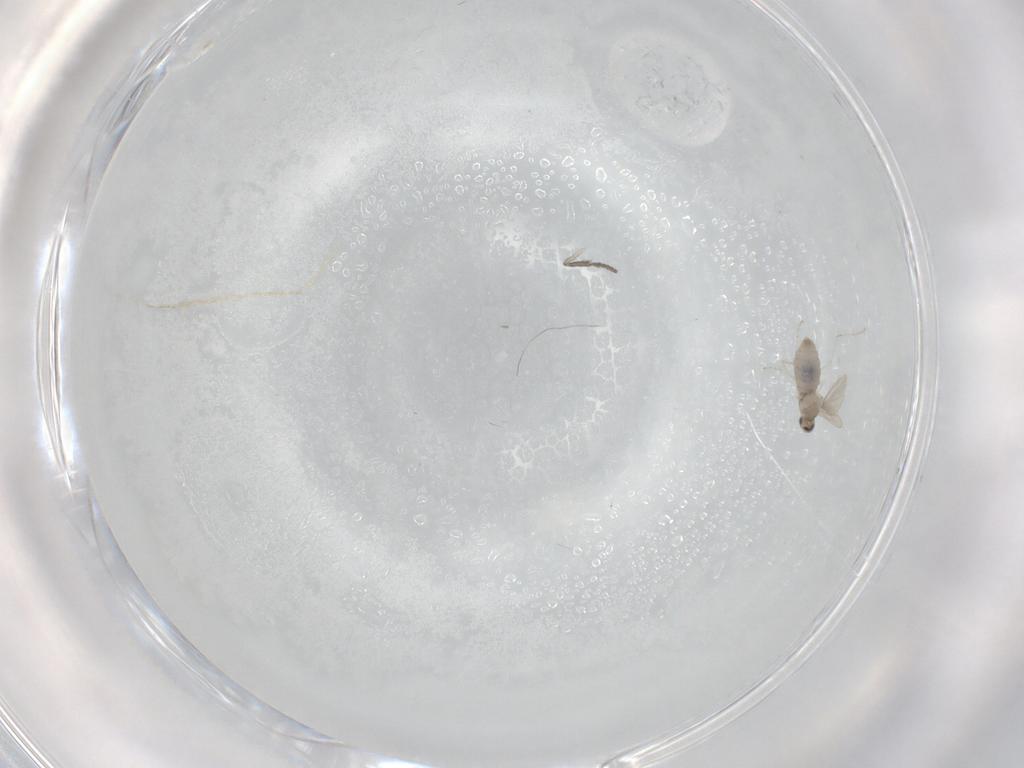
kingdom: Animalia
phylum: Arthropoda
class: Insecta
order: Diptera
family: Cecidomyiidae
